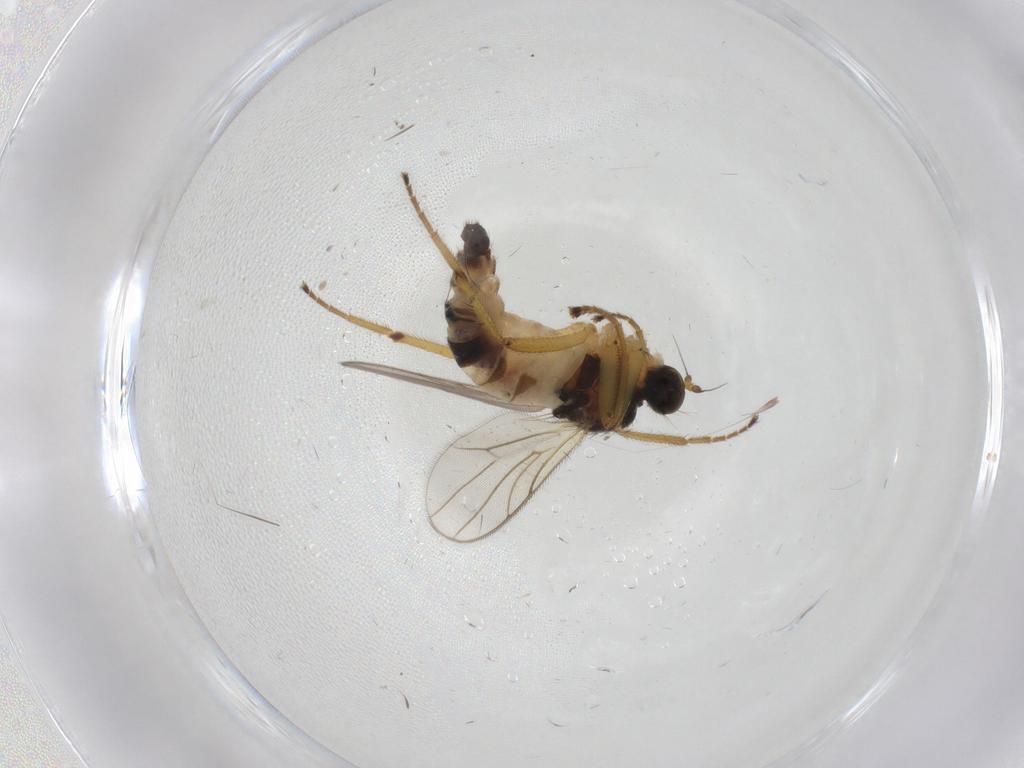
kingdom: Animalia
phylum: Arthropoda
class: Insecta
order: Diptera
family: Hybotidae
